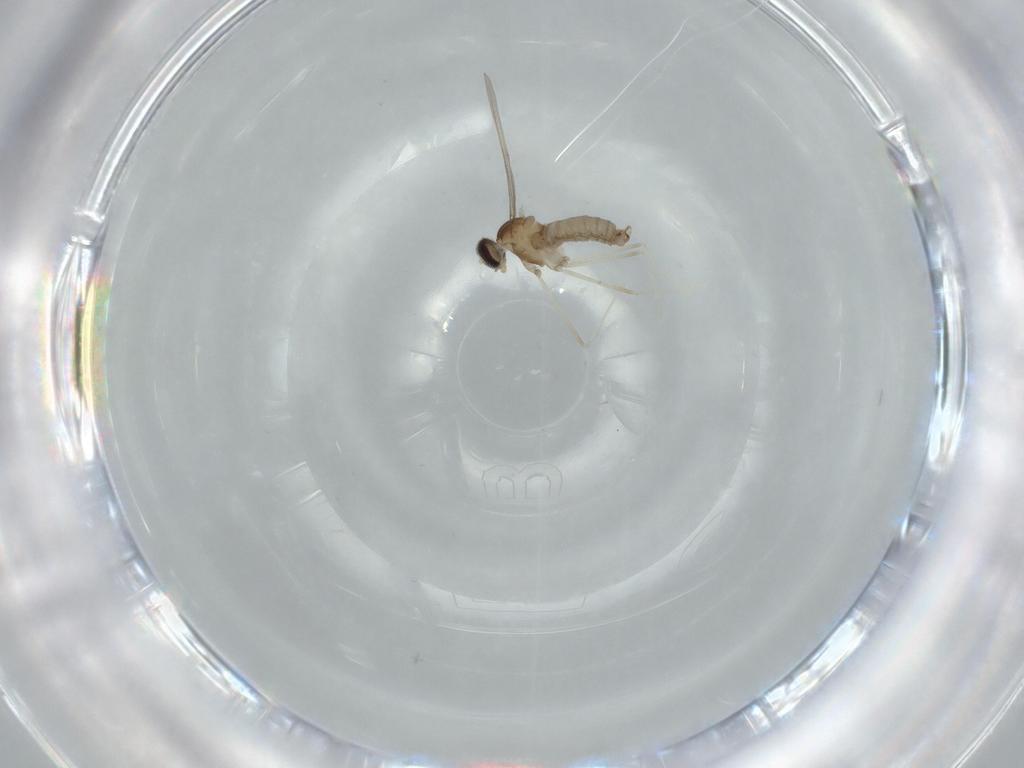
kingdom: Animalia
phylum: Arthropoda
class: Insecta
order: Diptera
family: Cecidomyiidae
